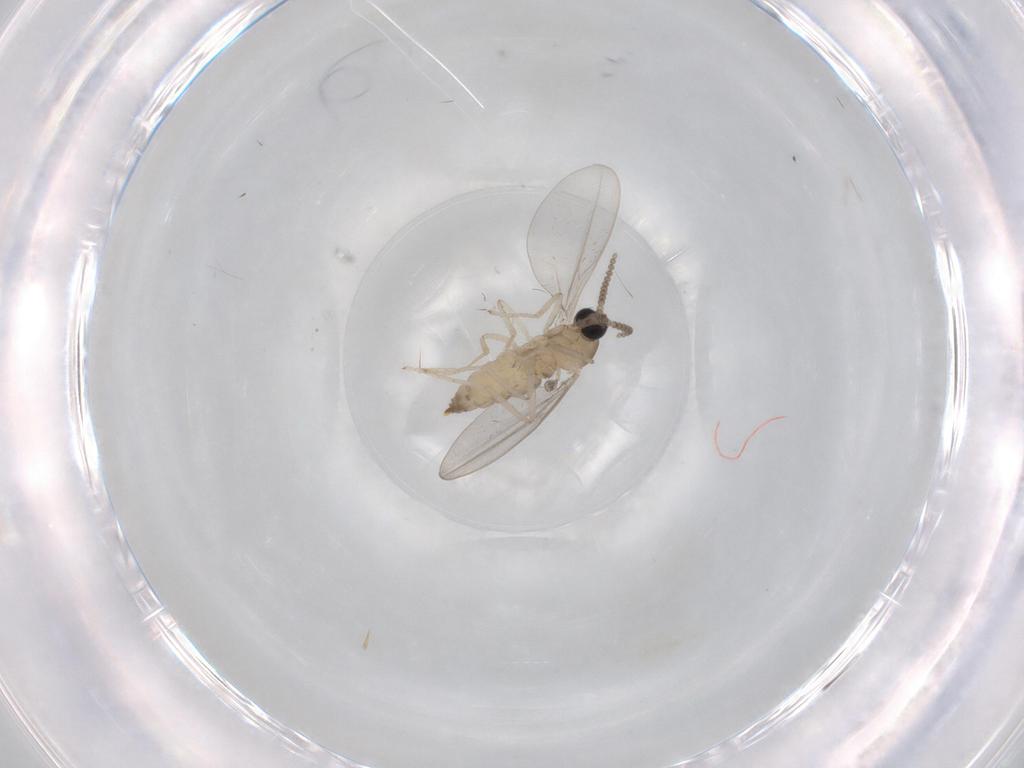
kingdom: Animalia
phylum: Arthropoda
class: Insecta
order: Diptera
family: Cecidomyiidae
